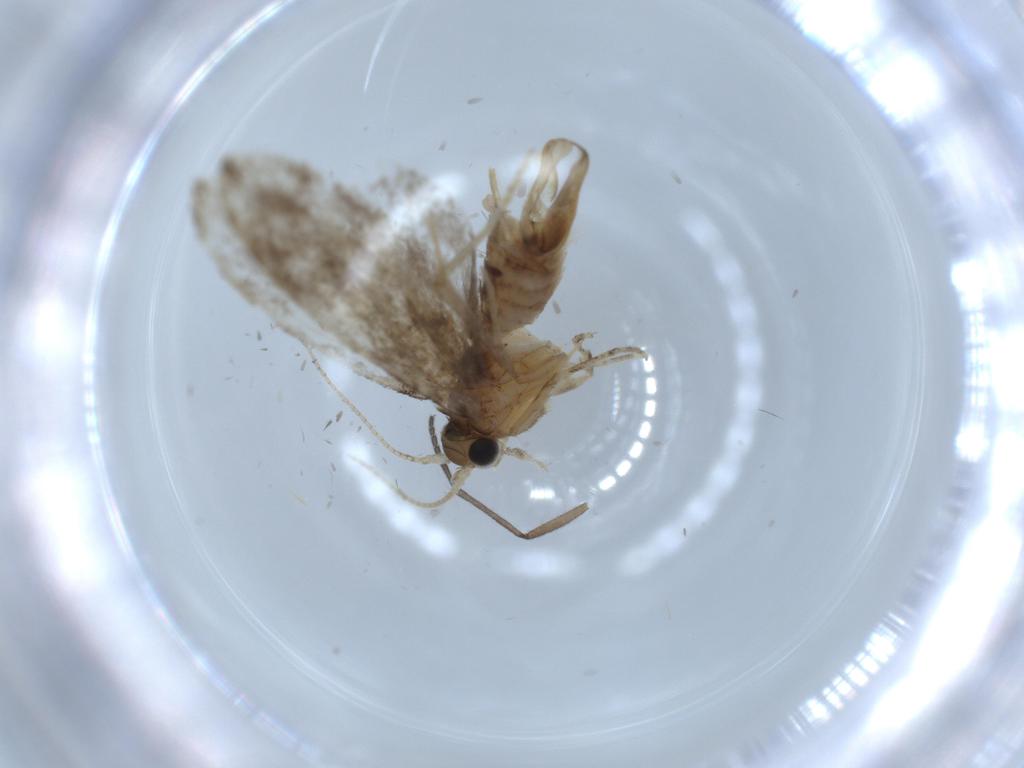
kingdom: Animalia
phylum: Arthropoda
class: Insecta
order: Lepidoptera
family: Tineidae
